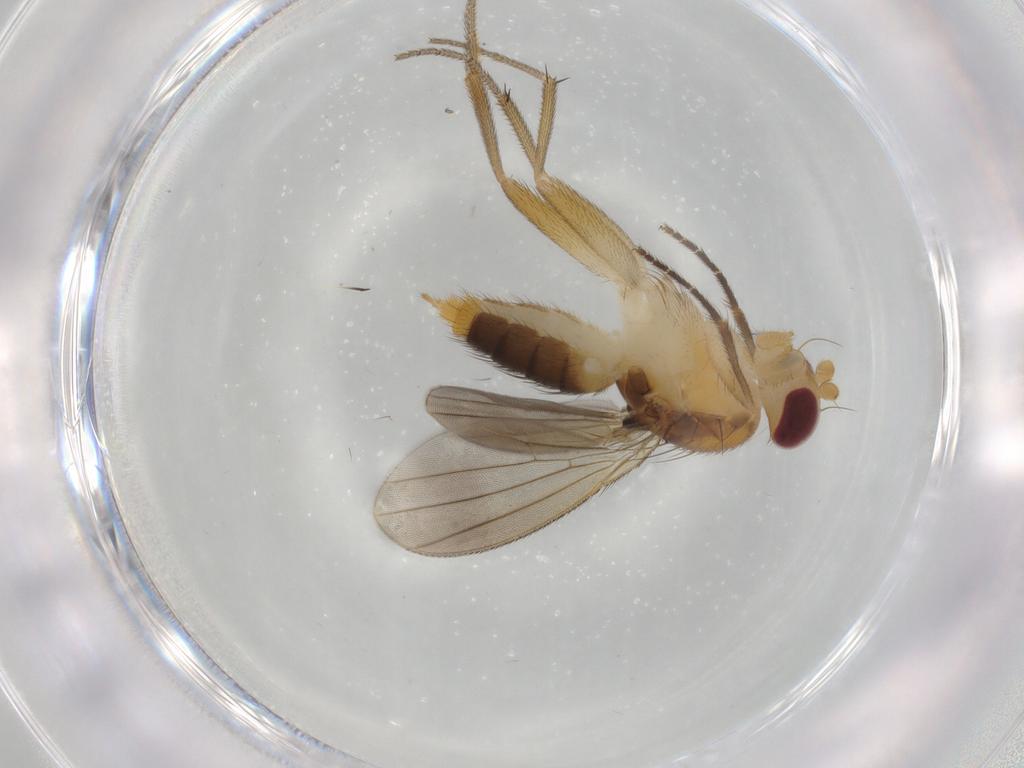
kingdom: Animalia
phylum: Arthropoda
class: Insecta
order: Diptera
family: Clusiidae
